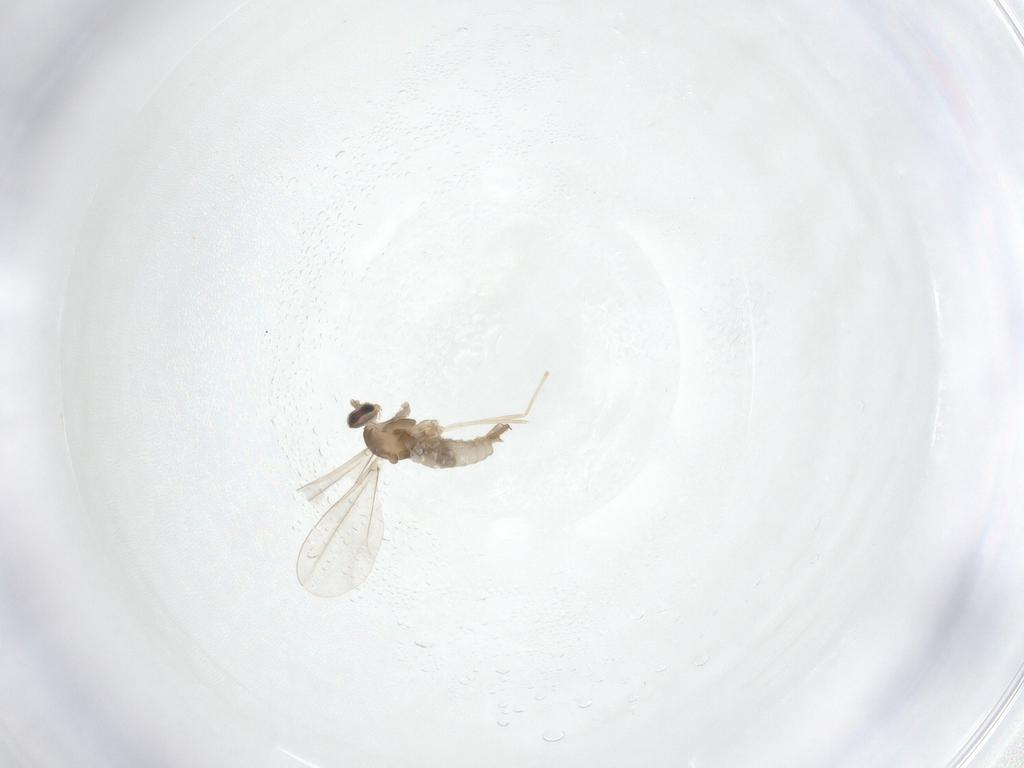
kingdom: Animalia
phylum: Arthropoda
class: Insecta
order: Diptera
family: Cecidomyiidae
